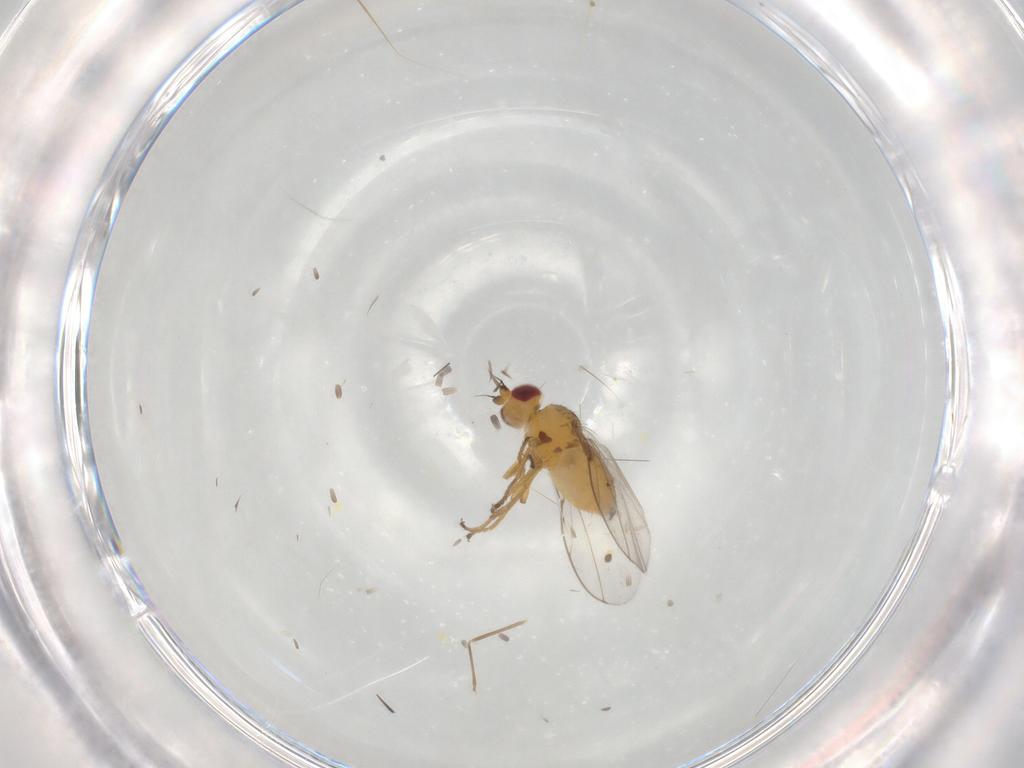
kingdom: Animalia
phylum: Arthropoda
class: Insecta
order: Diptera
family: Chloropidae
